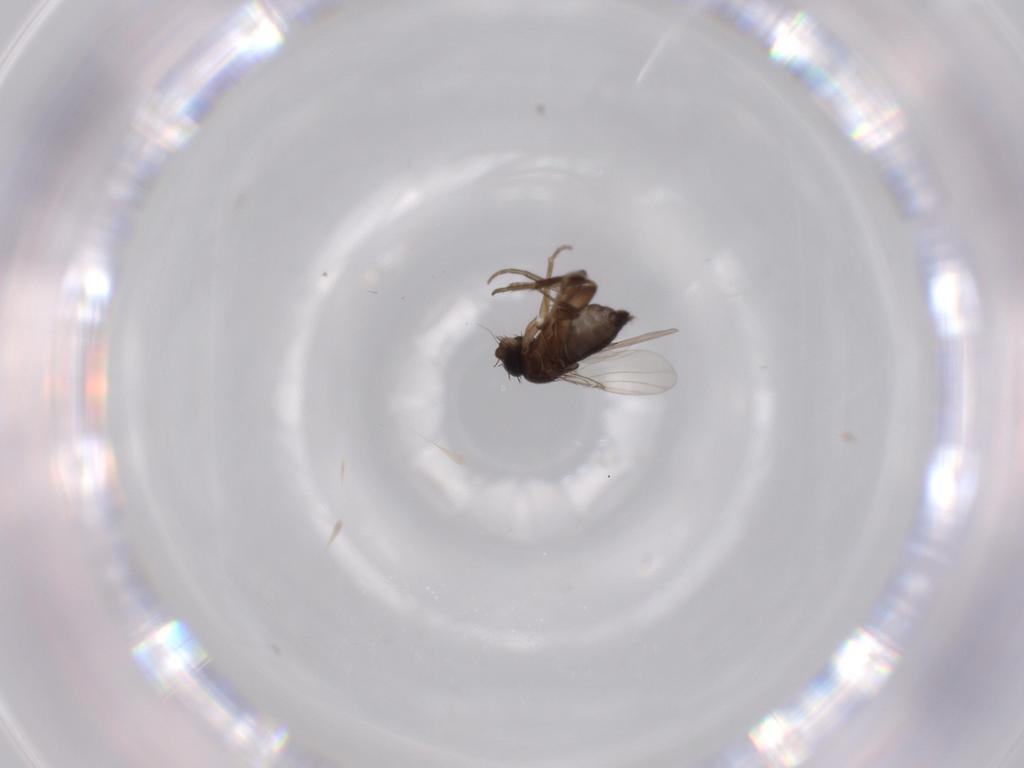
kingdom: Animalia
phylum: Arthropoda
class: Insecta
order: Diptera
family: Phoridae
